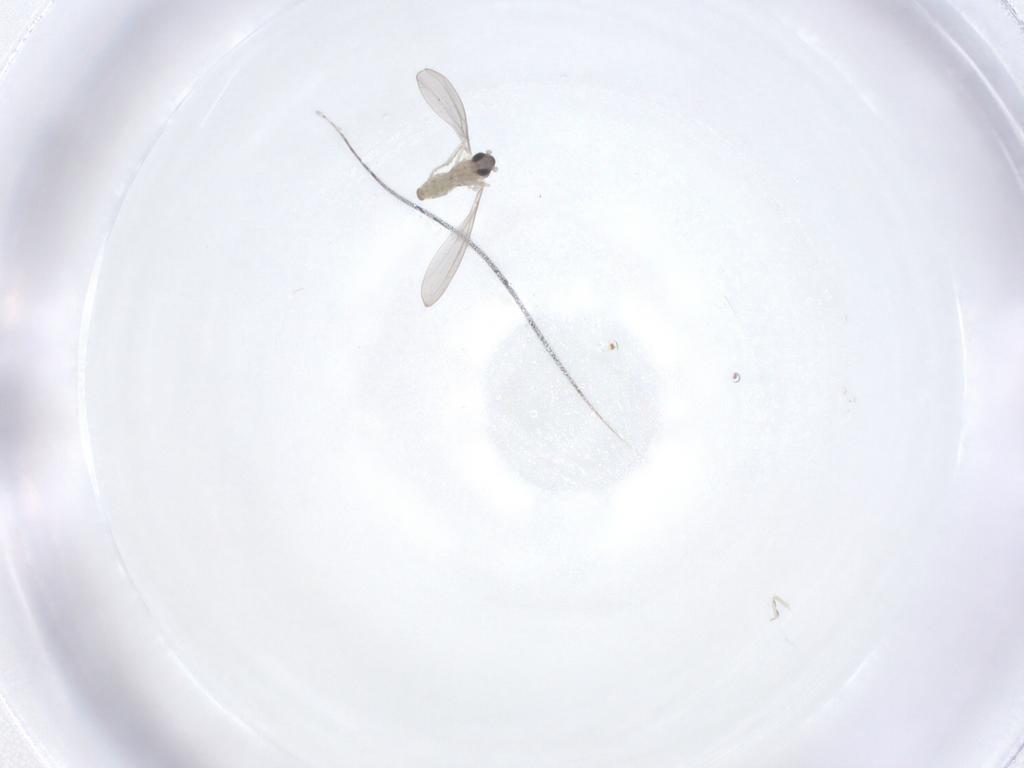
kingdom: Animalia
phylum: Arthropoda
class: Insecta
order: Diptera
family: Cecidomyiidae
